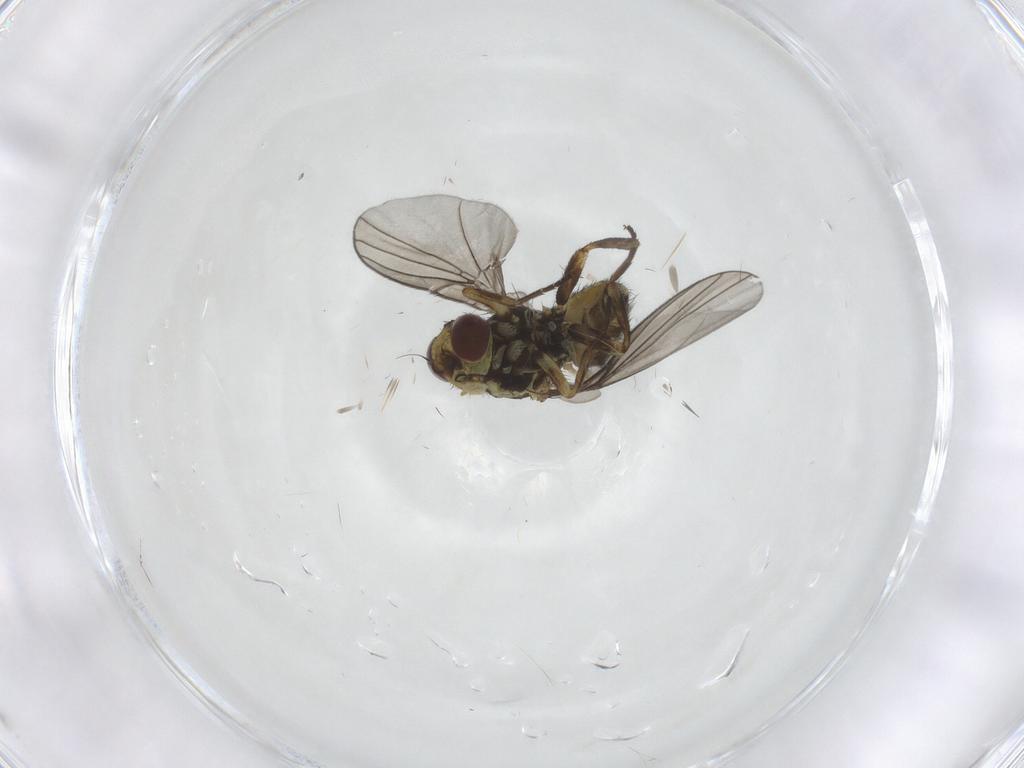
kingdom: Animalia
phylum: Arthropoda
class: Insecta
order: Diptera
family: Agromyzidae
